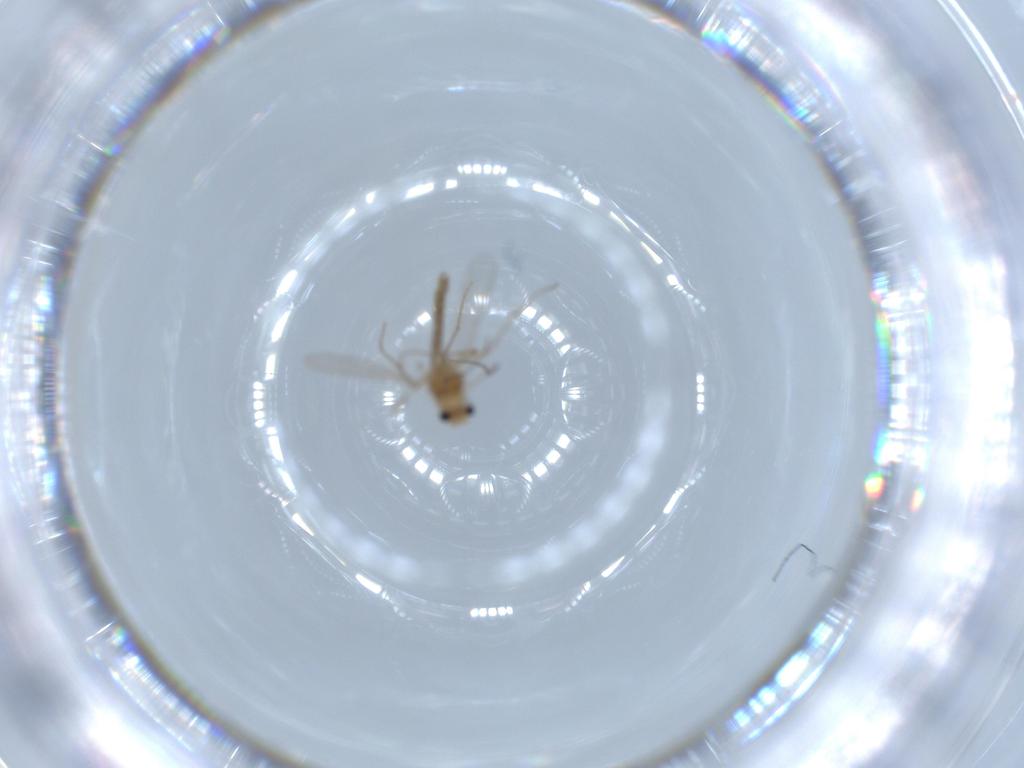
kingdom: Animalia
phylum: Arthropoda
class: Insecta
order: Diptera
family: Chironomidae
